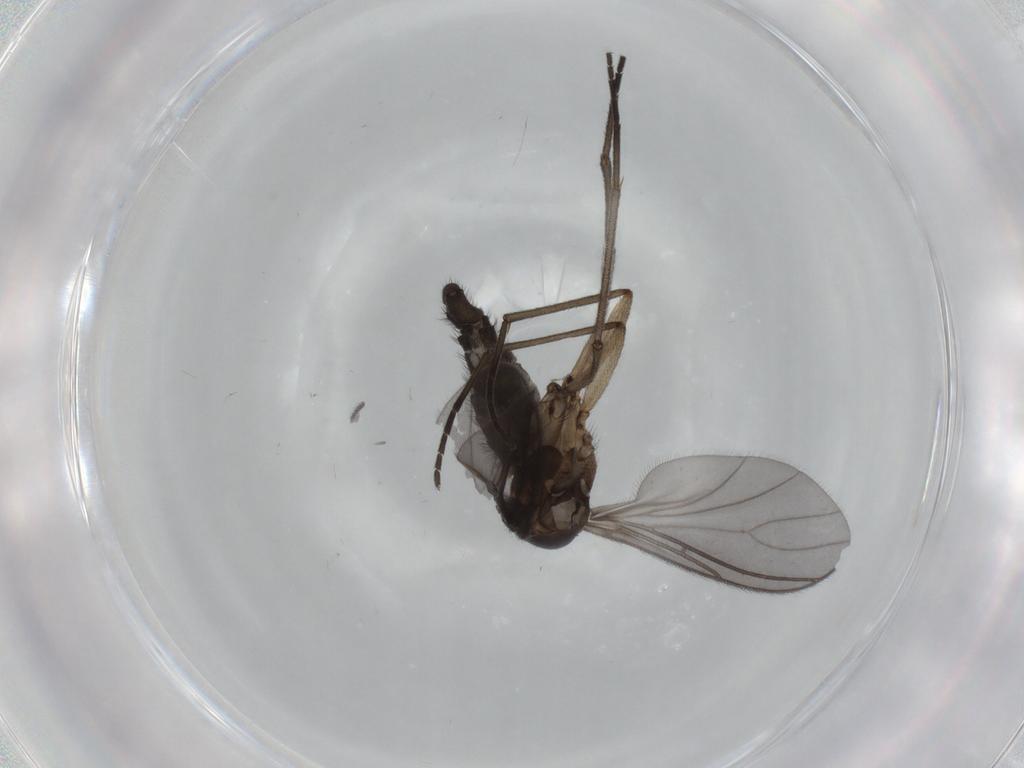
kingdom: Animalia
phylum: Arthropoda
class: Insecta
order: Diptera
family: Sciaridae
